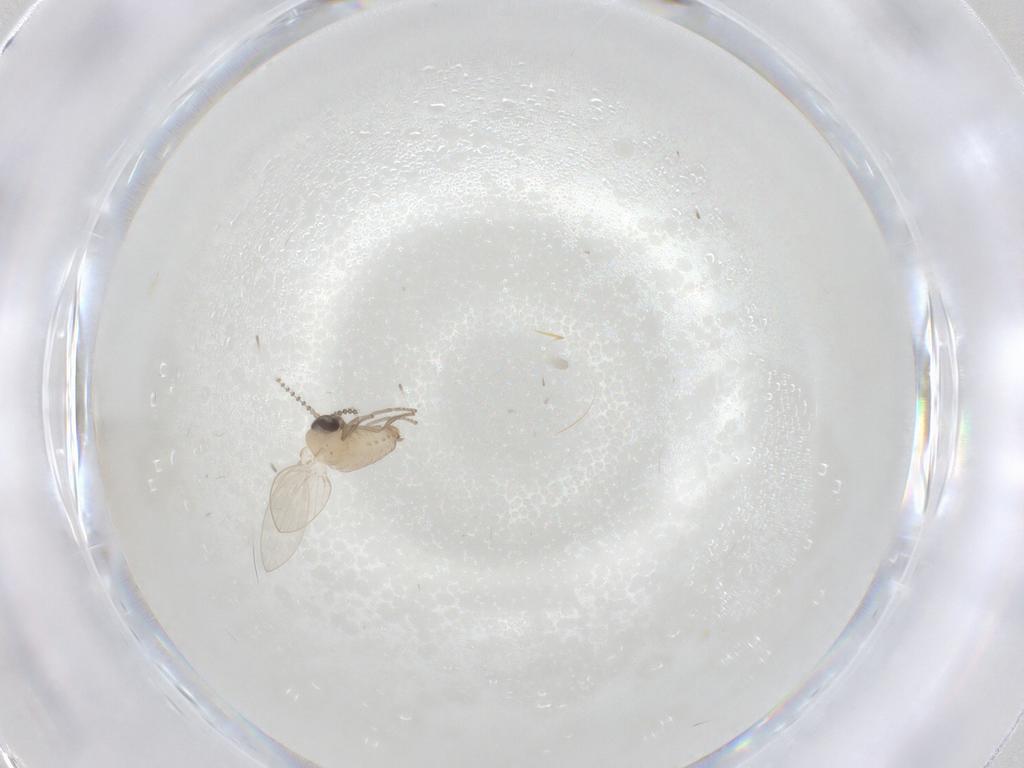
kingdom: Animalia
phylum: Arthropoda
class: Insecta
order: Diptera
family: Psychodidae
